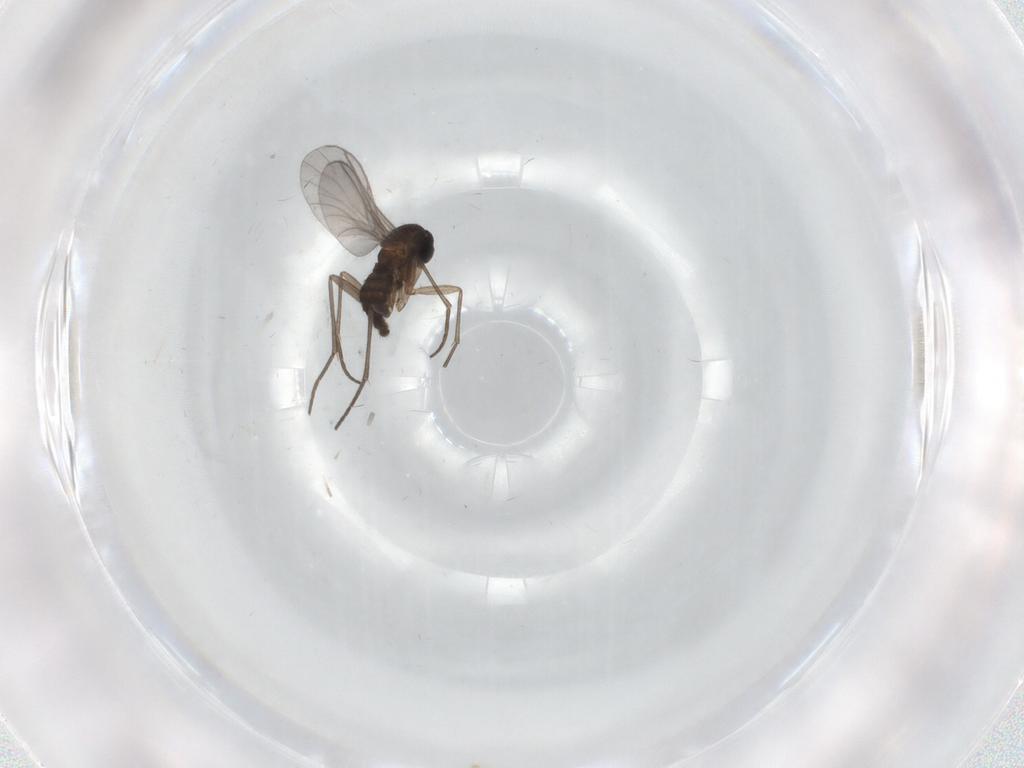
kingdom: Animalia
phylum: Arthropoda
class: Insecta
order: Diptera
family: Sciaridae
